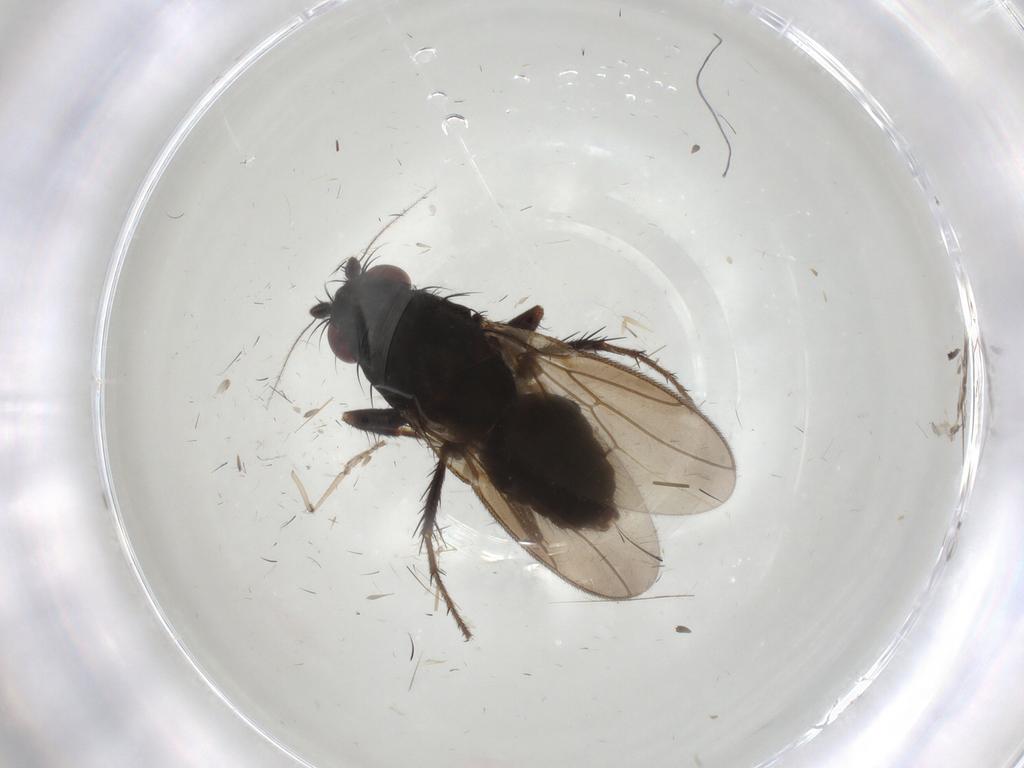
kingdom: Animalia
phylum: Arthropoda
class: Insecta
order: Diptera
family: Sphaeroceridae
